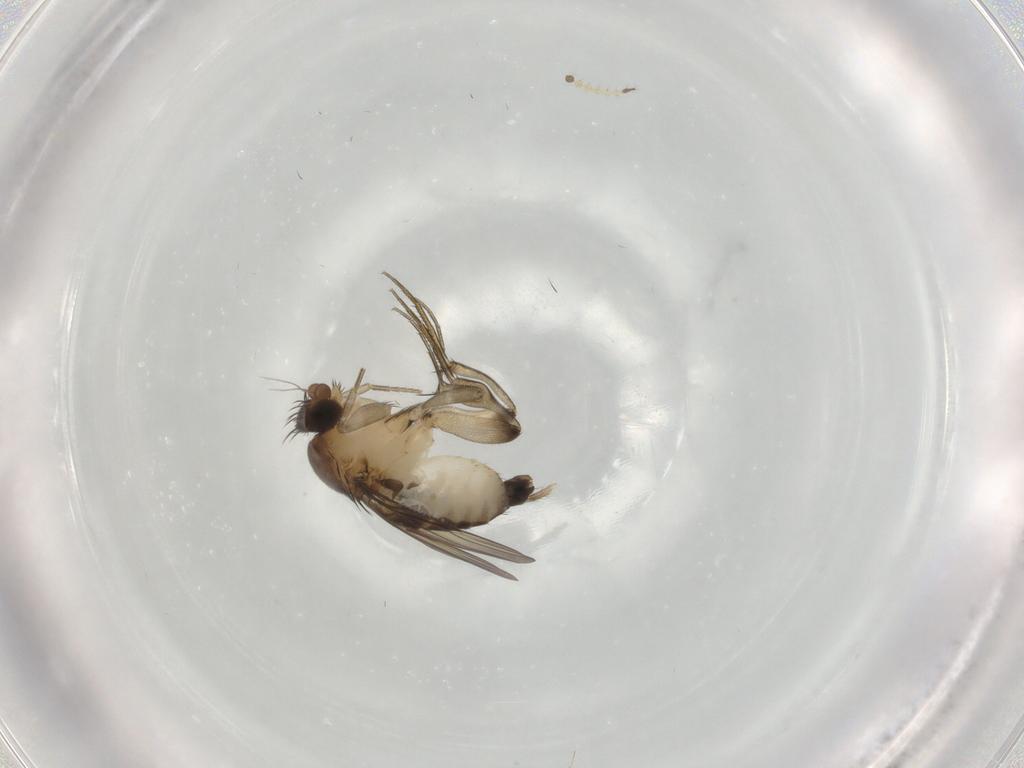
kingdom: Animalia
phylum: Arthropoda
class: Insecta
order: Diptera
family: Phoridae
